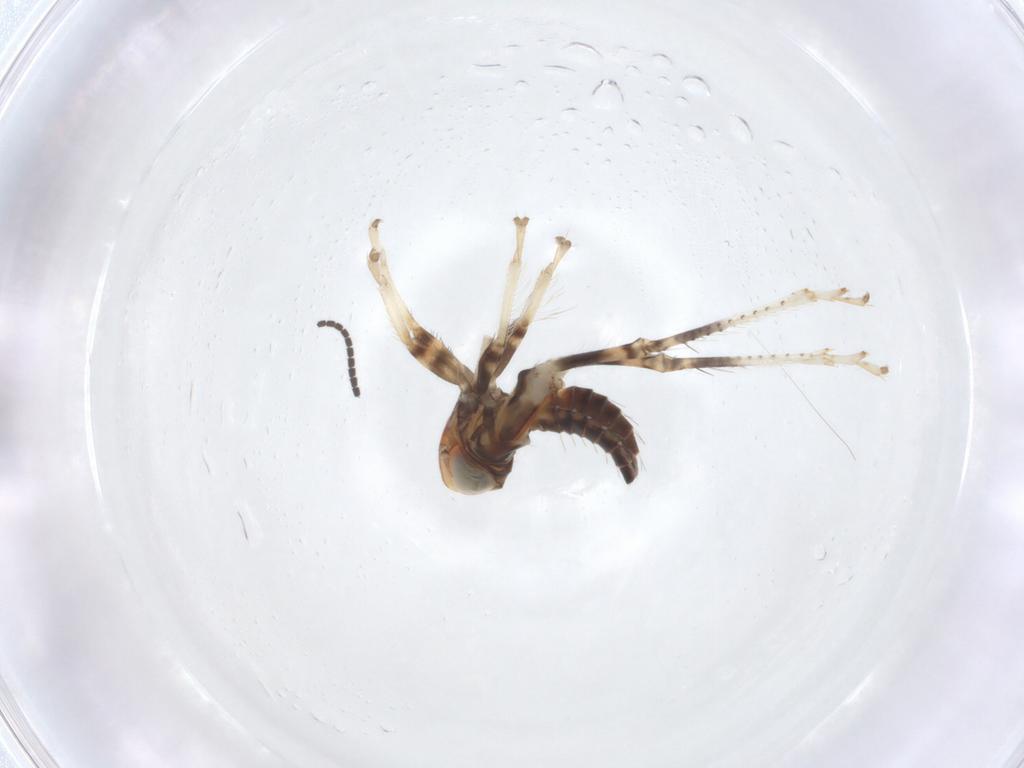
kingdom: Animalia
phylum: Arthropoda
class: Insecta
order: Hemiptera
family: Cicadellidae
